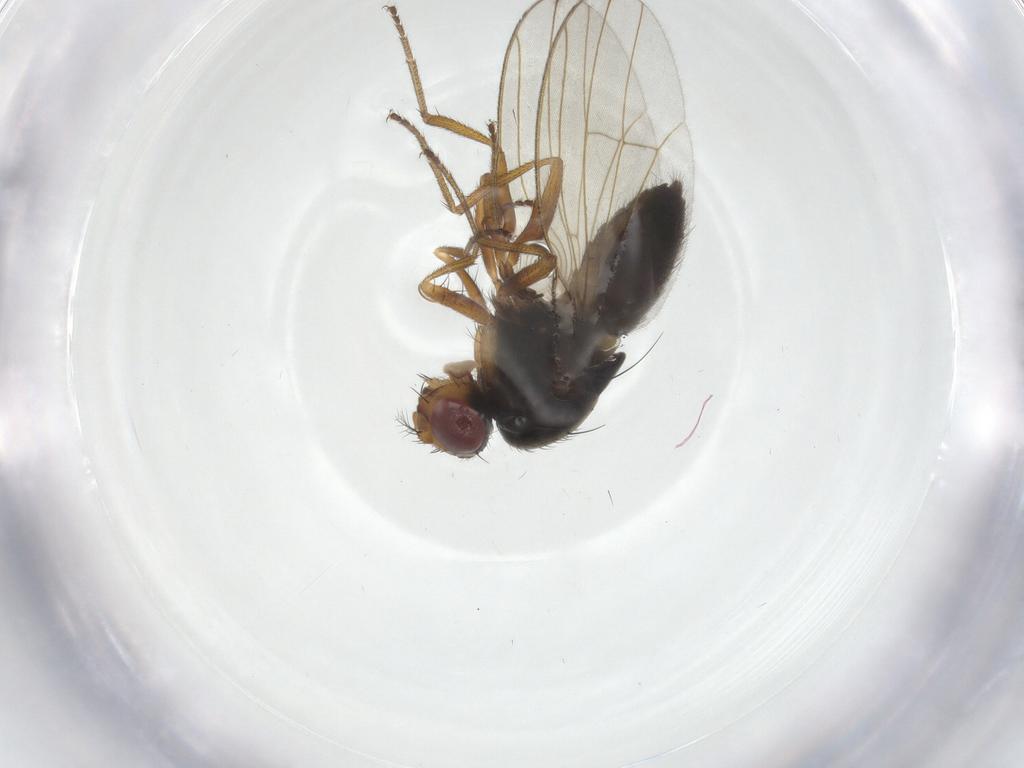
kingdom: Animalia
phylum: Arthropoda
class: Insecta
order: Diptera
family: Drosophilidae
